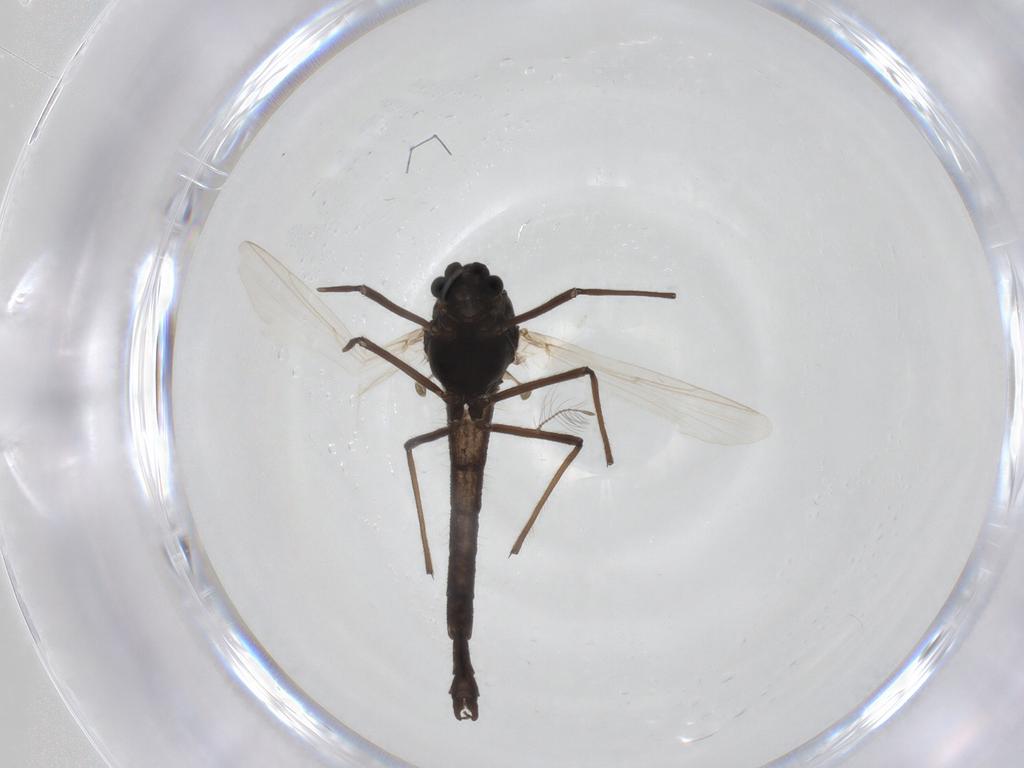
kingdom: Animalia
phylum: Arthropoda
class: Insecta
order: Diptera
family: Chironomidae
